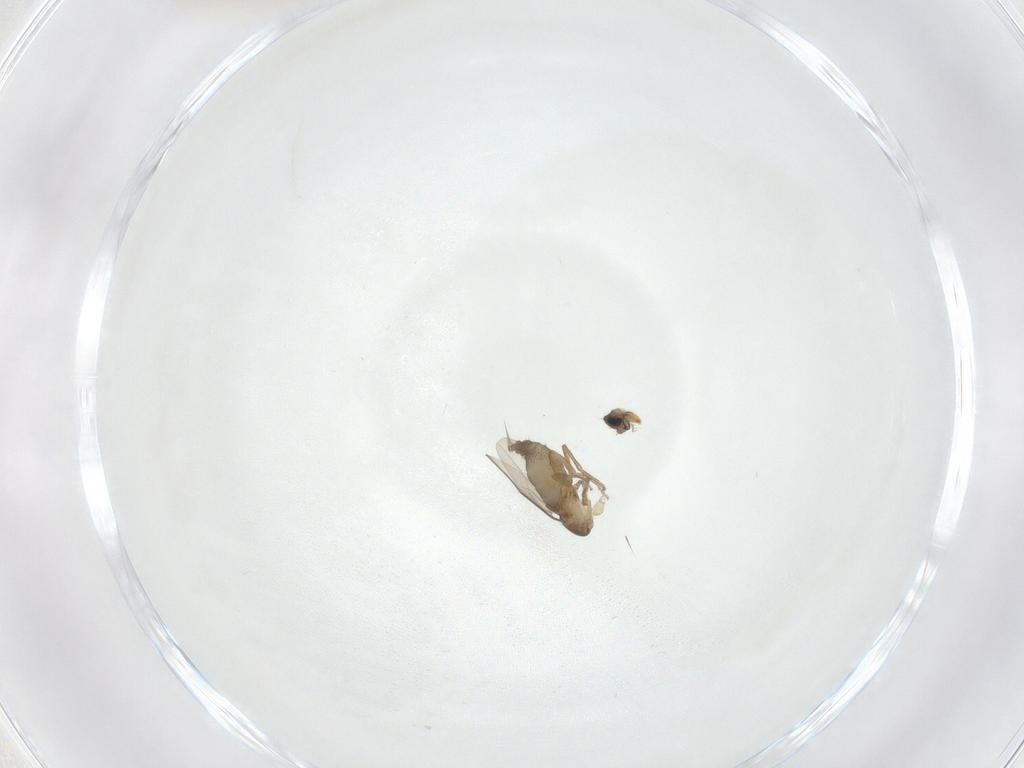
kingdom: Animalia
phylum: Arthropoda
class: Insecta
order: Diptera
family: Phoridae
